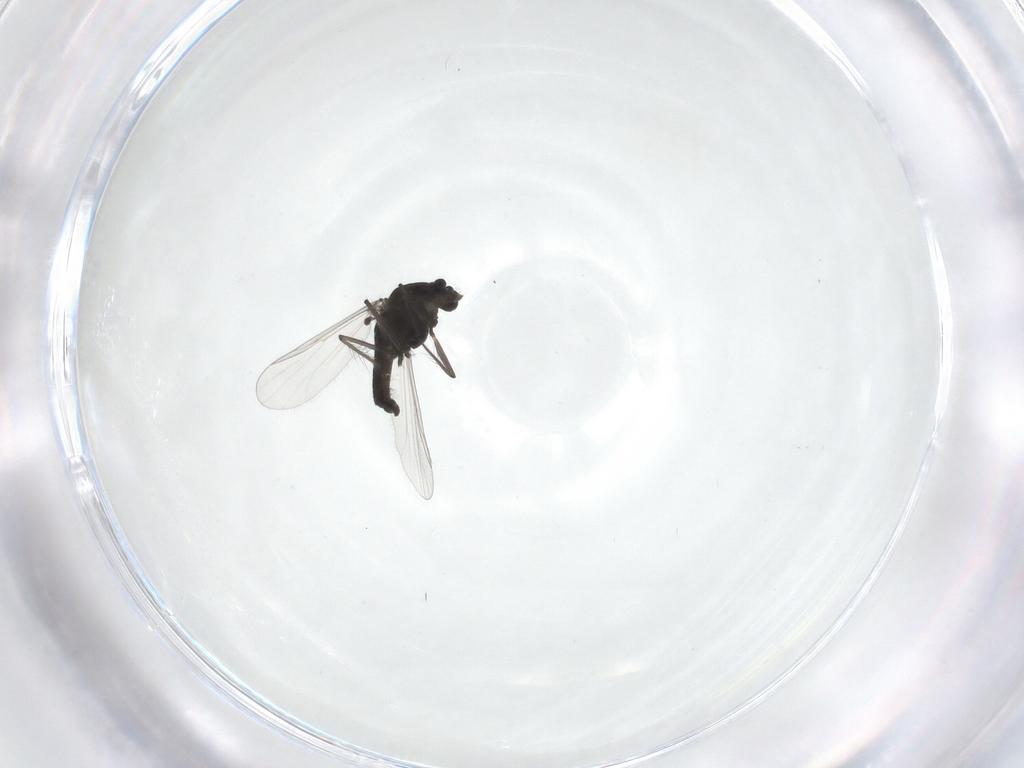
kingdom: Animalia
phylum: Arthropoda
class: Insecta
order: Diptera
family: Chironomidae
